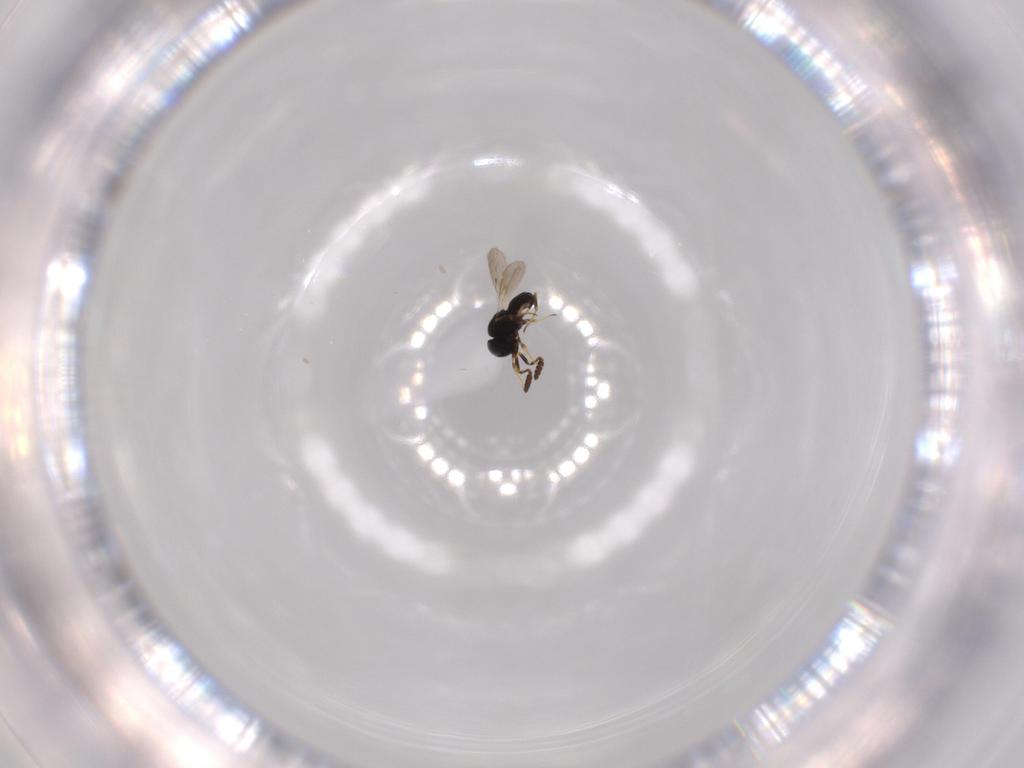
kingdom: Animalia
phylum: Arthropoda
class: Insecta
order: Hymenoptera
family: Scelionidae
